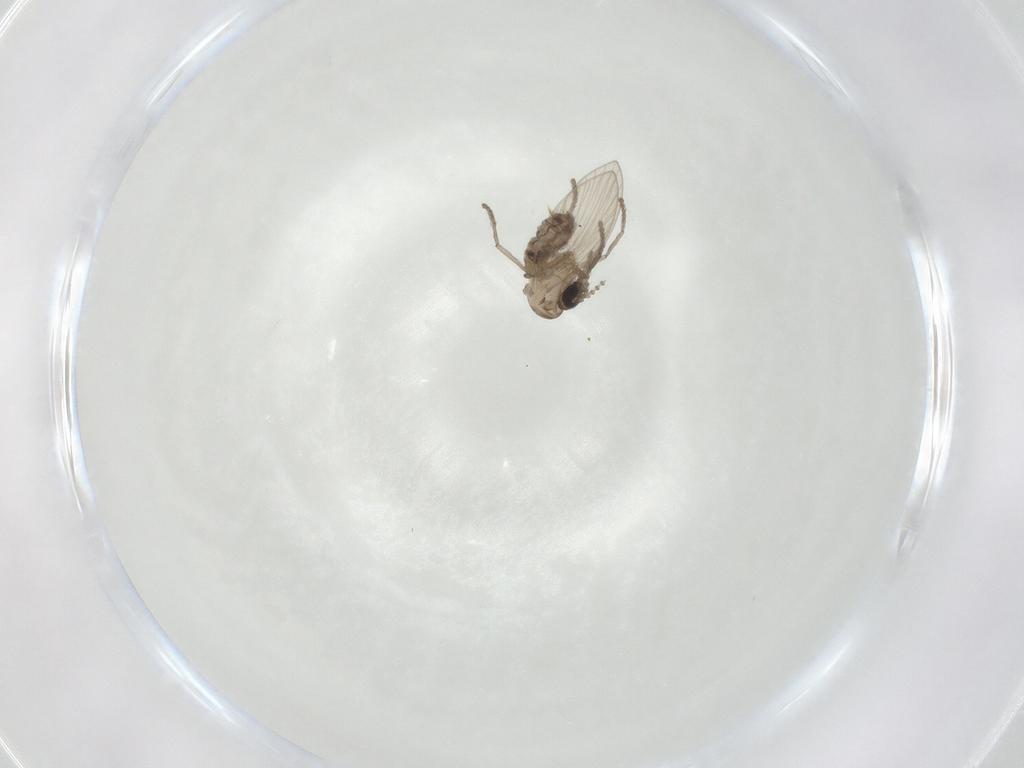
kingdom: Animalia
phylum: Arthropoda
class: Insecta
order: Diptera
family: Psychodidae
